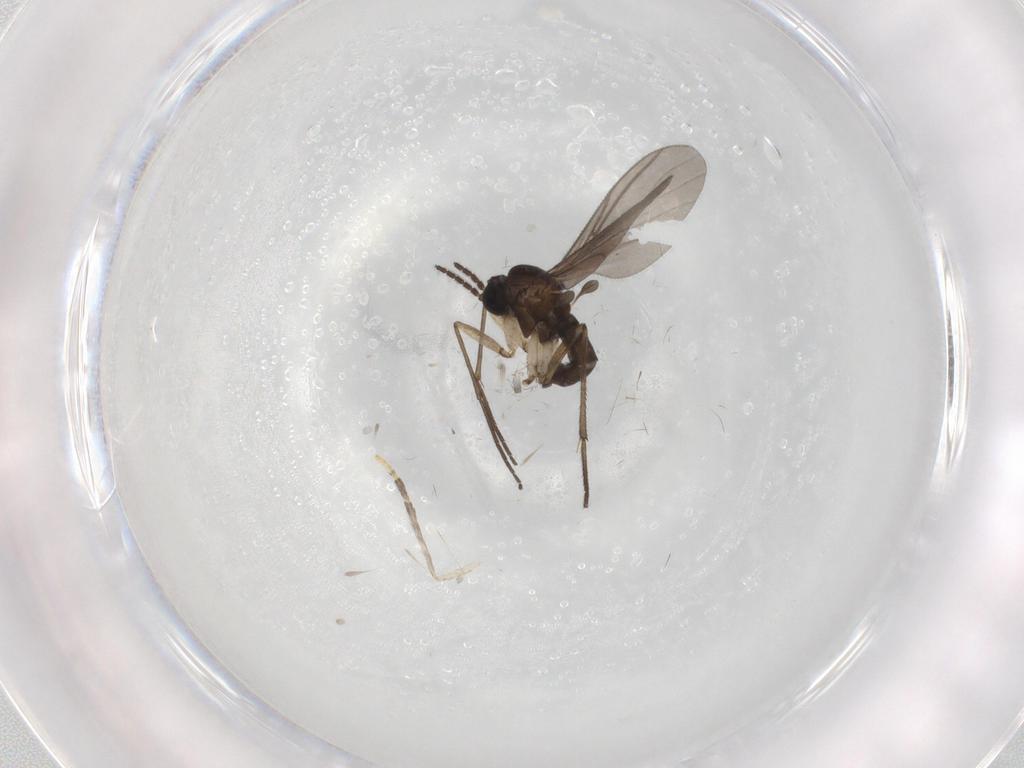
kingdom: Animalia
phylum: Arthropoda
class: Insecta
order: Diptera
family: Psychodidae
